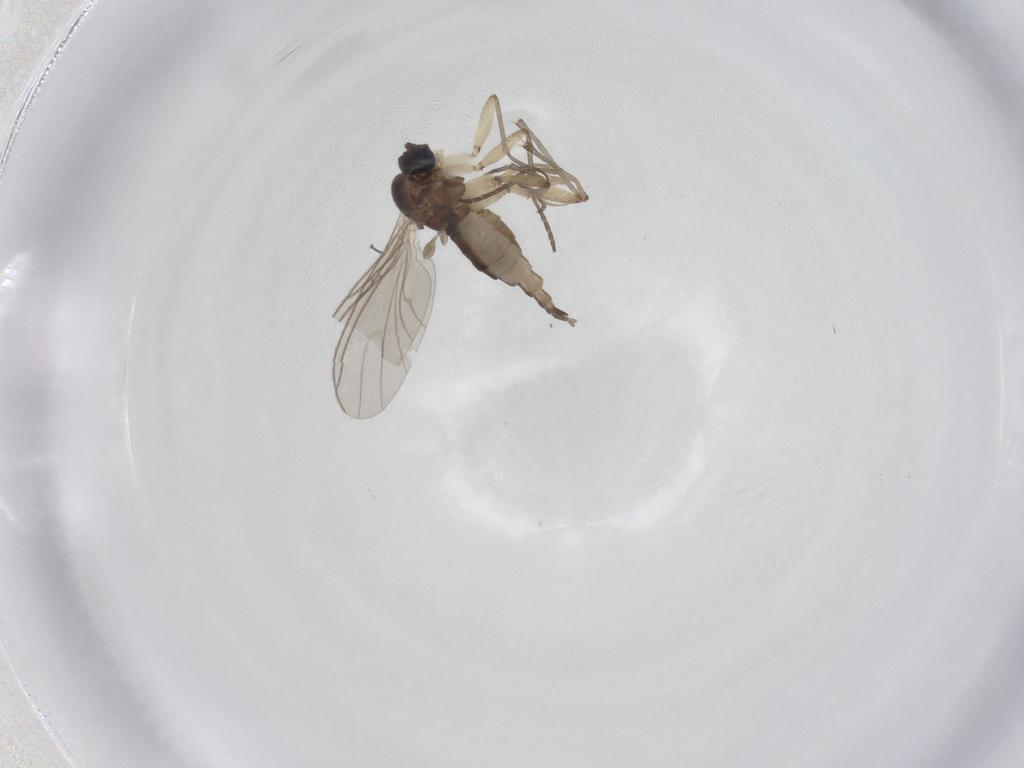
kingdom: Animalia
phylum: Arthropoda
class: Insecta
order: Diptera
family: Sciaridae
